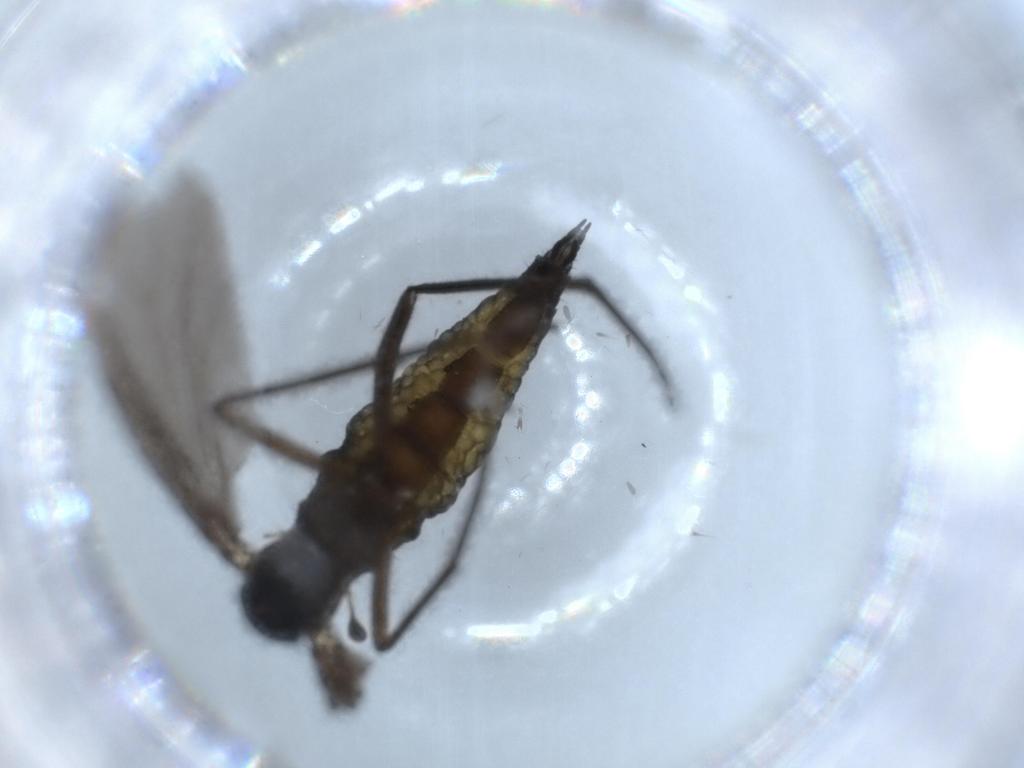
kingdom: Animalia
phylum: Arthropoda
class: Insecta
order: Diptera
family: Sciaridae
